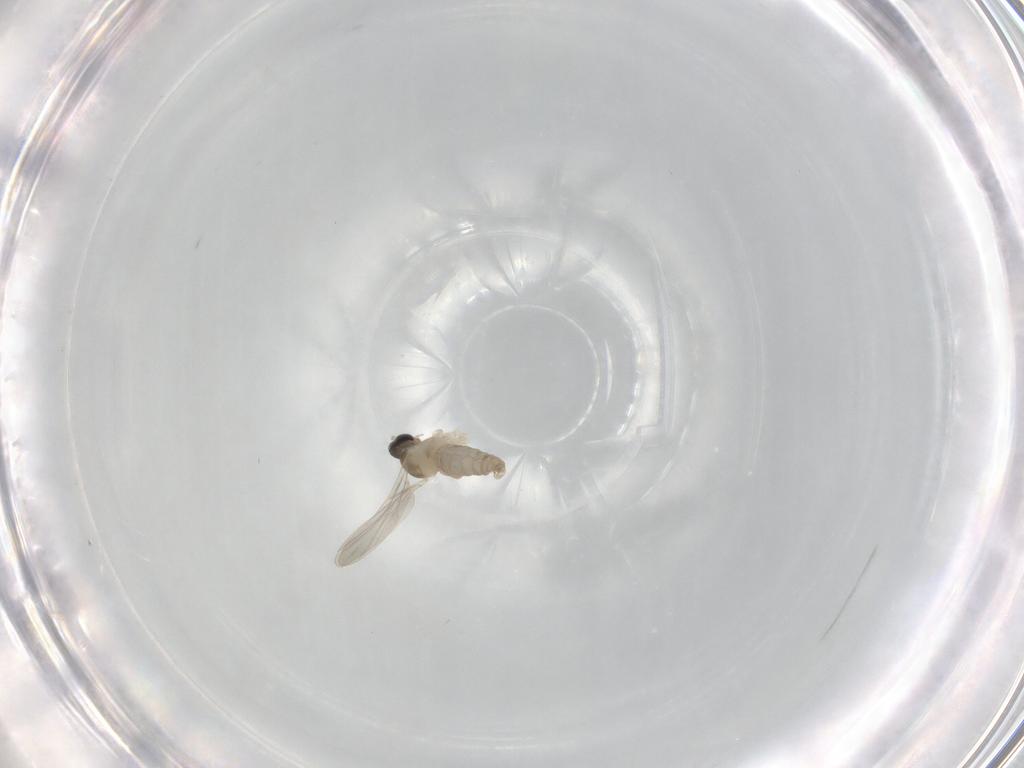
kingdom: Animalia
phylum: Arthropoda
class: Insecta
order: Diptera
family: Cecidomyiidae
